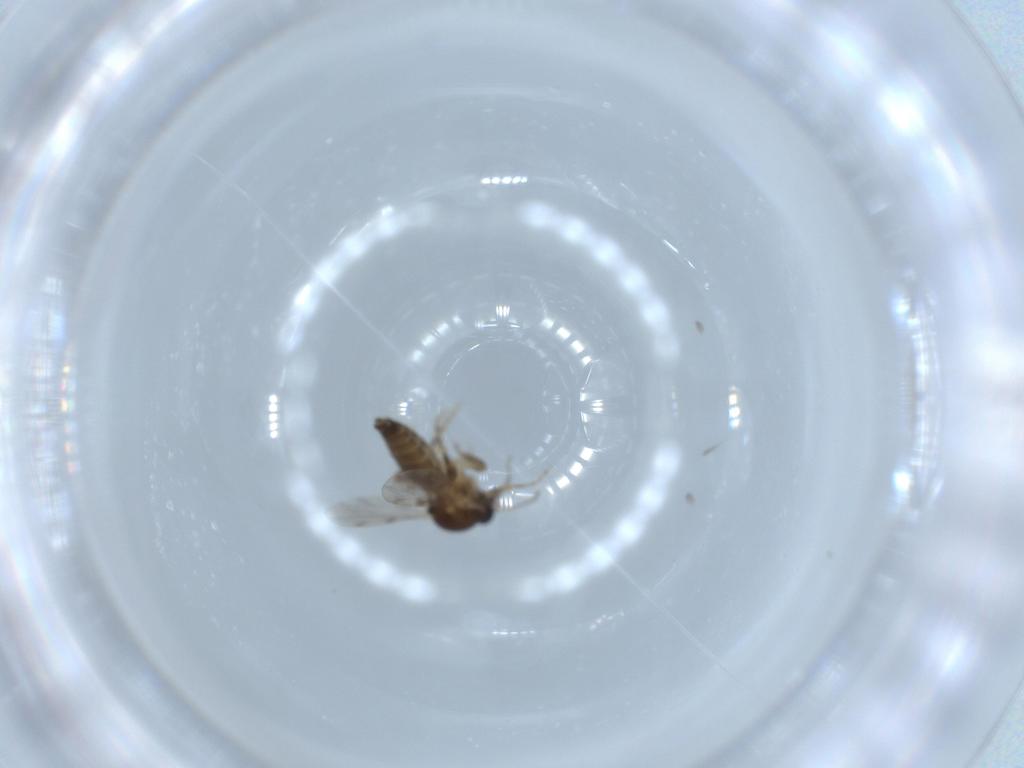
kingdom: Animalia
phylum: Arthropoda
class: Insecta
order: Diptera
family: Ceratopogonidae
